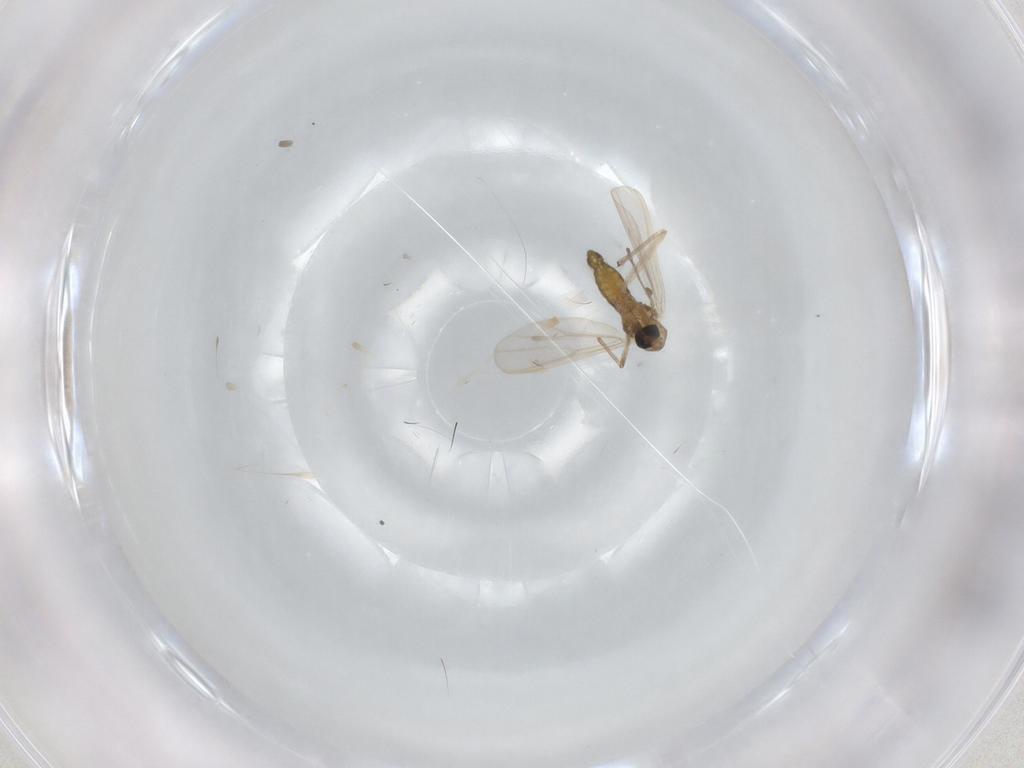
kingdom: Animalia
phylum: Arthropoda
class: Insecta
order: Diptera
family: Chironomidae
